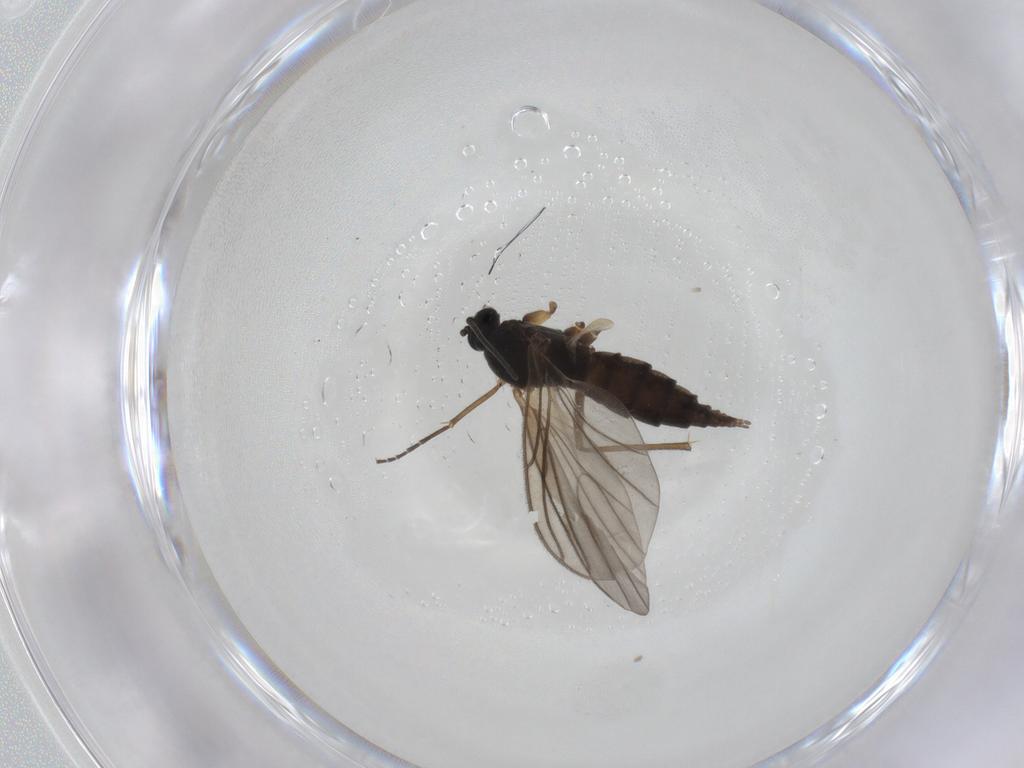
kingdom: Animalia
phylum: Arthropoda
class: Insecta
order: Diptera
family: Sciaridae
